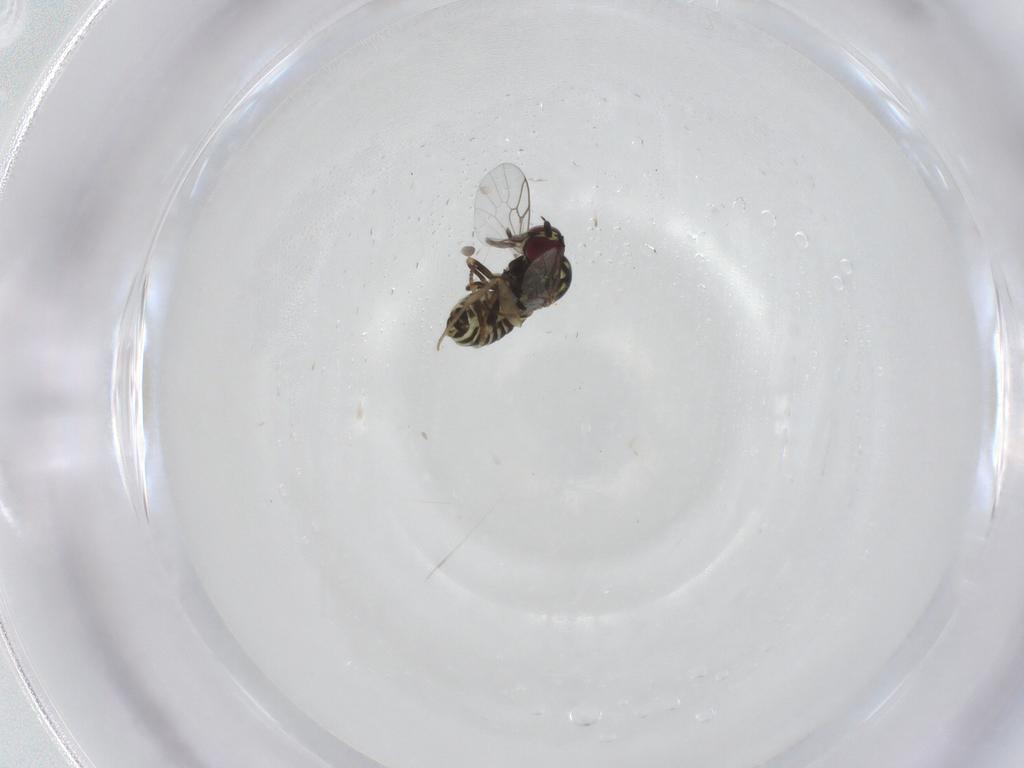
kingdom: Animalia
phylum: Arthropoda
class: Insecta
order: Diptera
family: Mythicomyiidae
